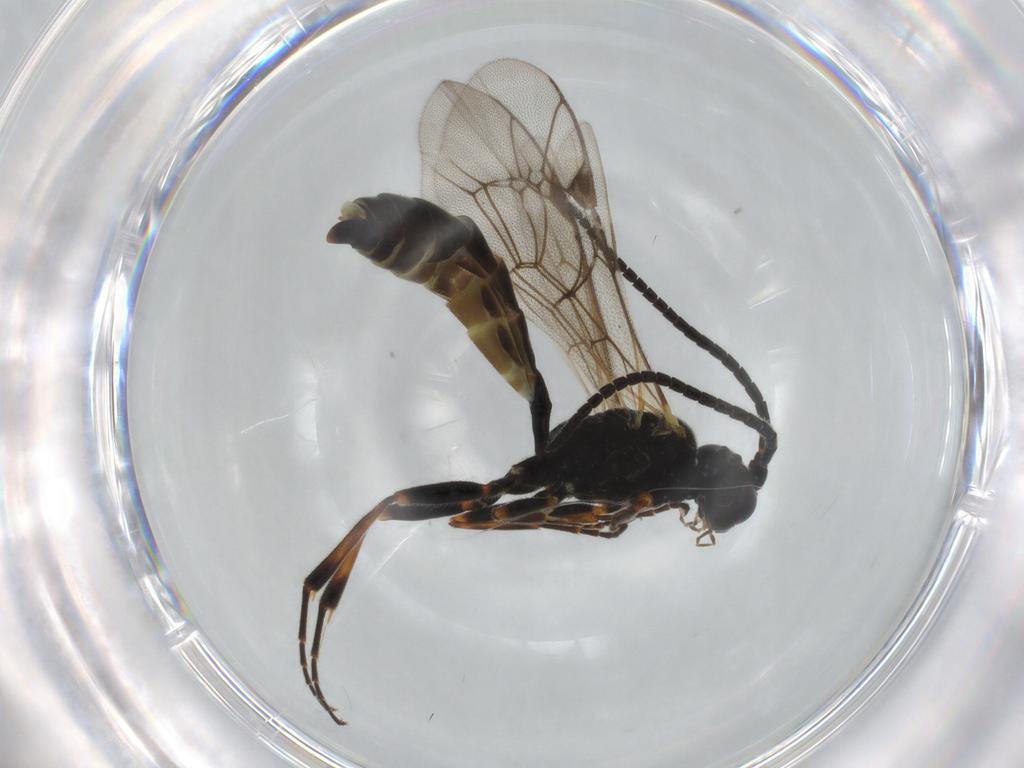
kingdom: Animalia
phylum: Arthropoda
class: Insecta
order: Hymenoptera
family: Ichneumonidae
